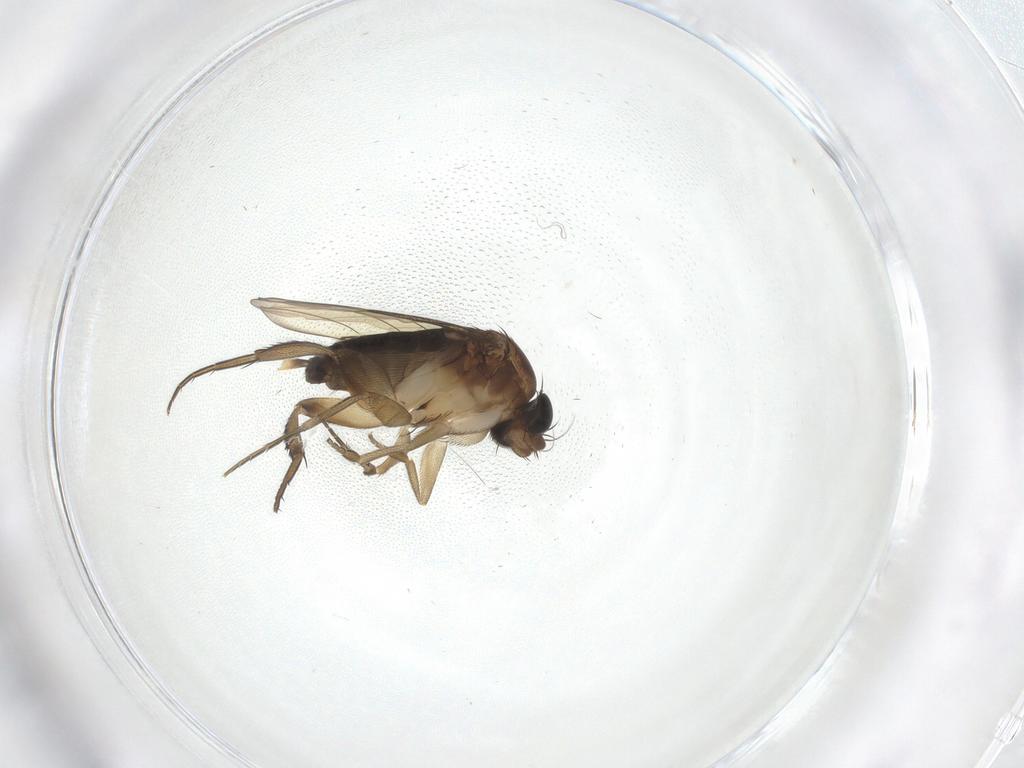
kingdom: Animalia
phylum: Arthropoda
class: Insecta
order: Diptera
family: Phoridae
